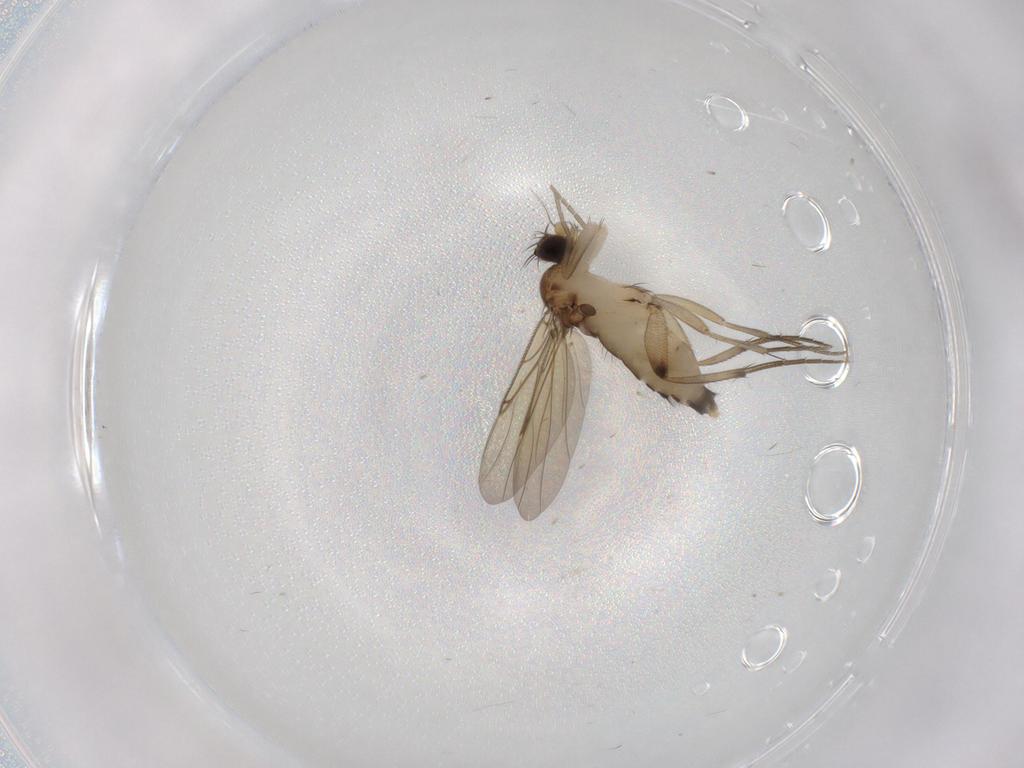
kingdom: Animalia
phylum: Arthropoda
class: Insecta
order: Diptera
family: Phoridae
